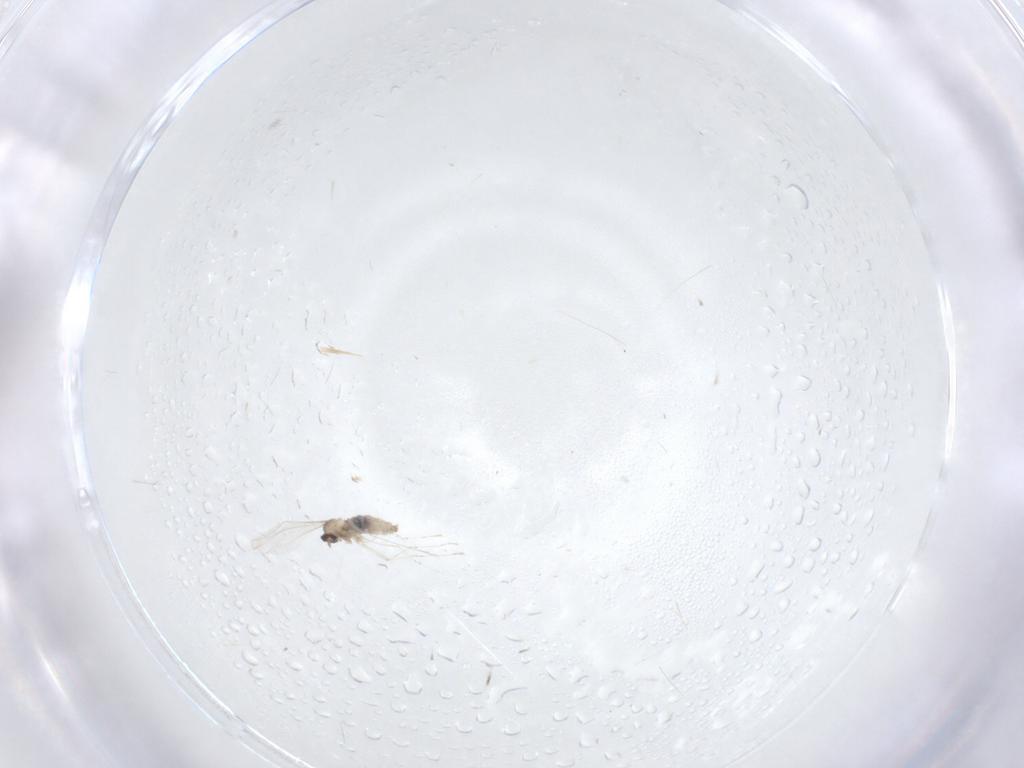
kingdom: Animalia
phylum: Arthropoda
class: Insecta
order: Diptera
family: Cecidomyiidae
